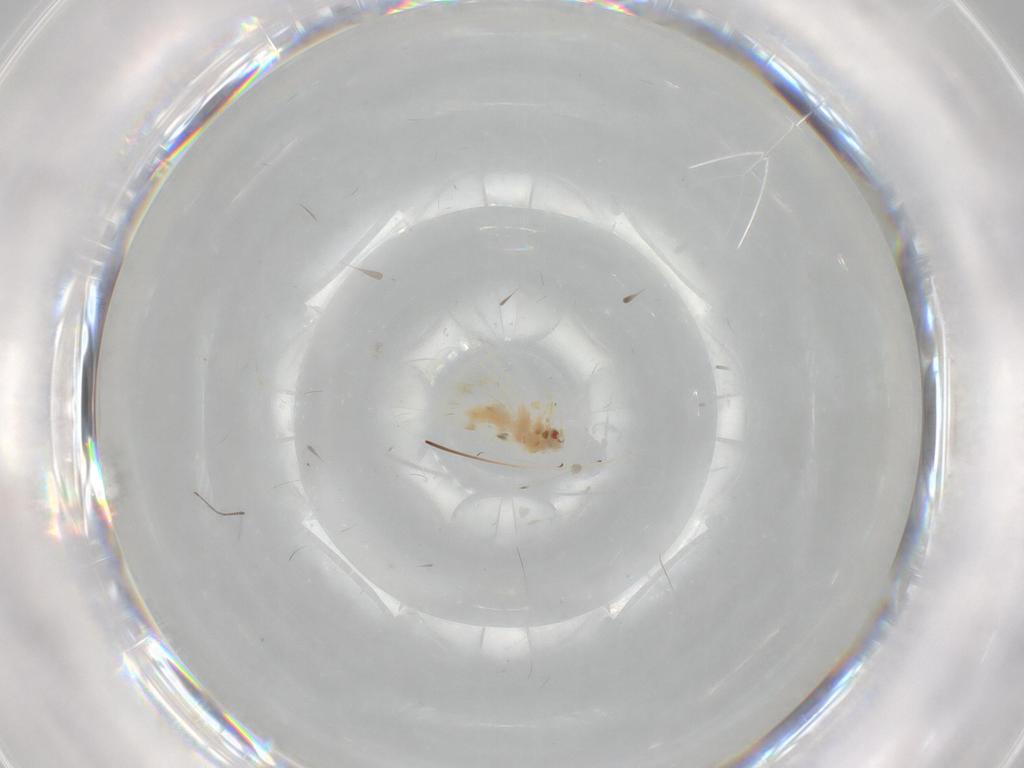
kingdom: Animalia
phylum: Arthropoda
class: Insecta
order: Hemiptera
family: Aleyrodidae
